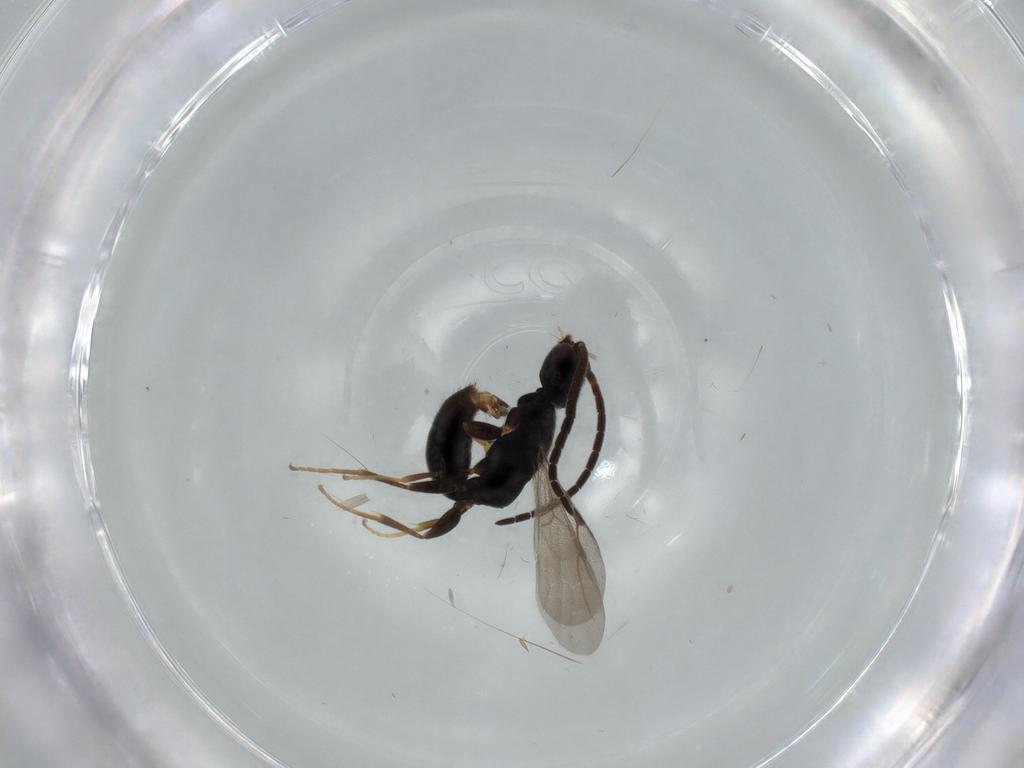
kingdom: Animalia
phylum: Arthropoda
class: Insecta
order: Hymenoptera
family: Bethylidae
